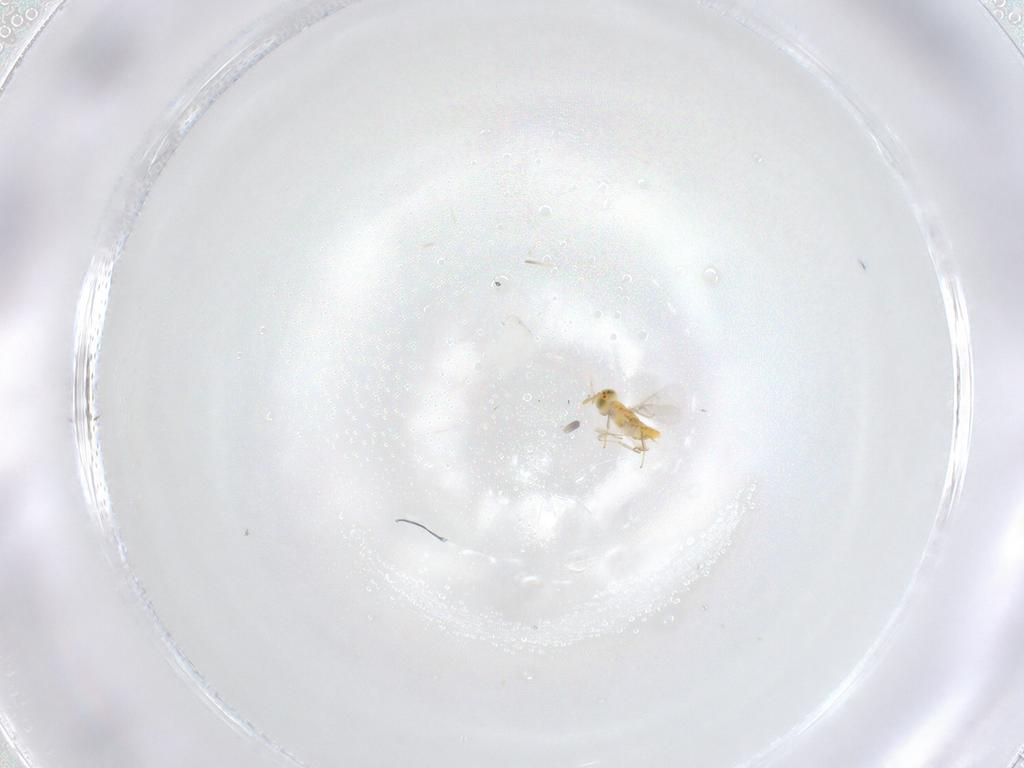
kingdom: Animalia
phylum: Arthropoda
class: Insecta
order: Hymenoptera
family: Aphelinidae
